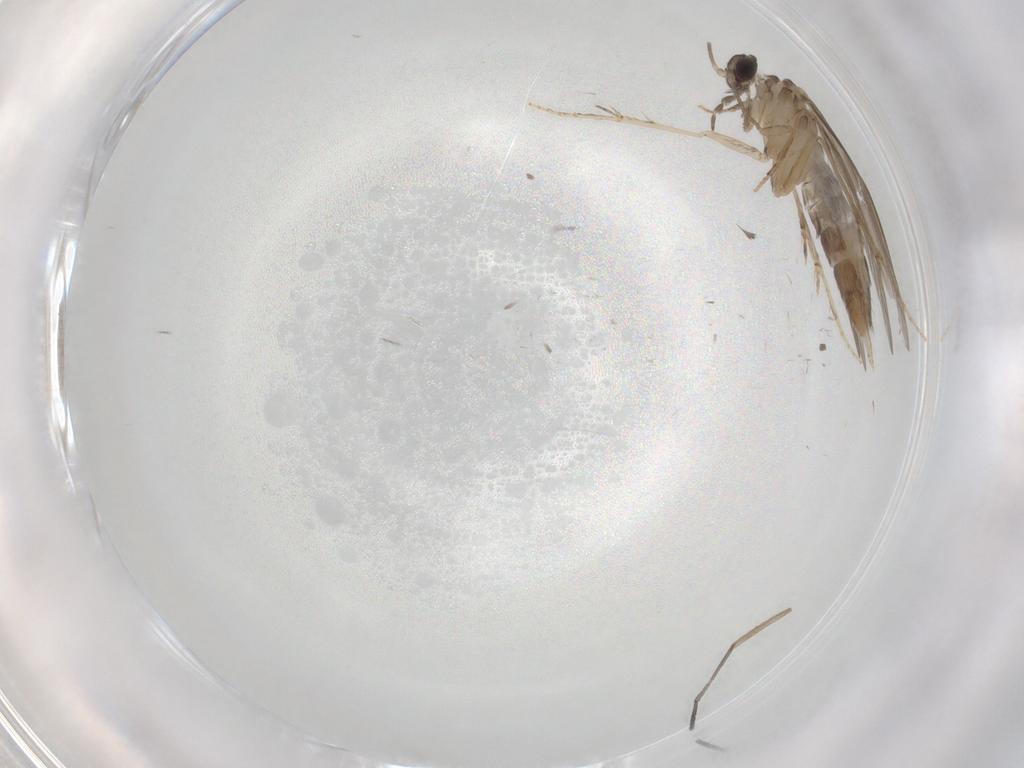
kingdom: Animalia
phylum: Arthropoda
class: Insecta
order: Trichoptera
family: Hydroptilidae
